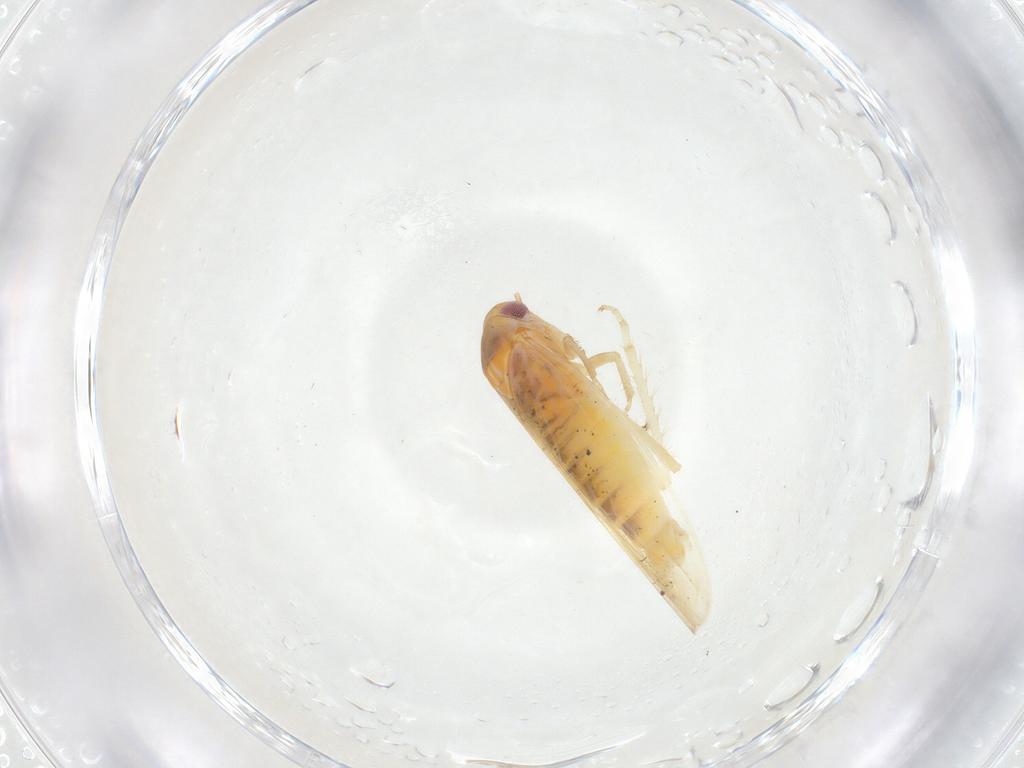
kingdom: Animalia
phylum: Arthropoda
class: Insecta
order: Hemiptera
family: Cicadellidae
